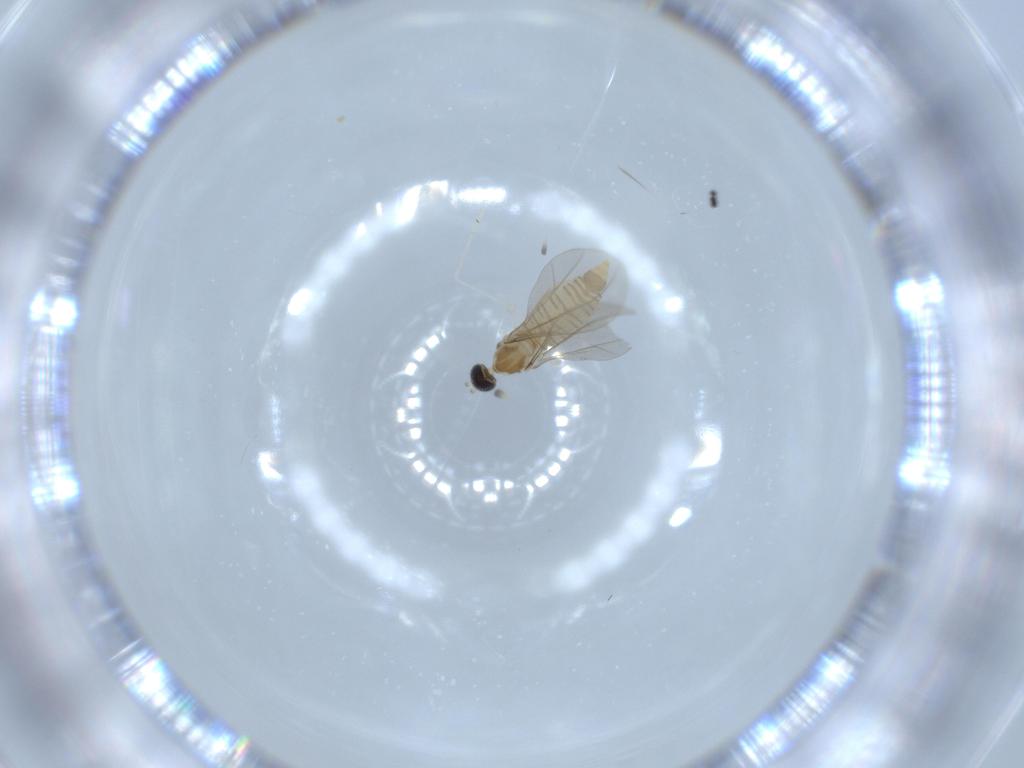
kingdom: Animalia
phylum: Arthropoda
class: Insecta
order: Diptera
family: Cecidomyiidae
